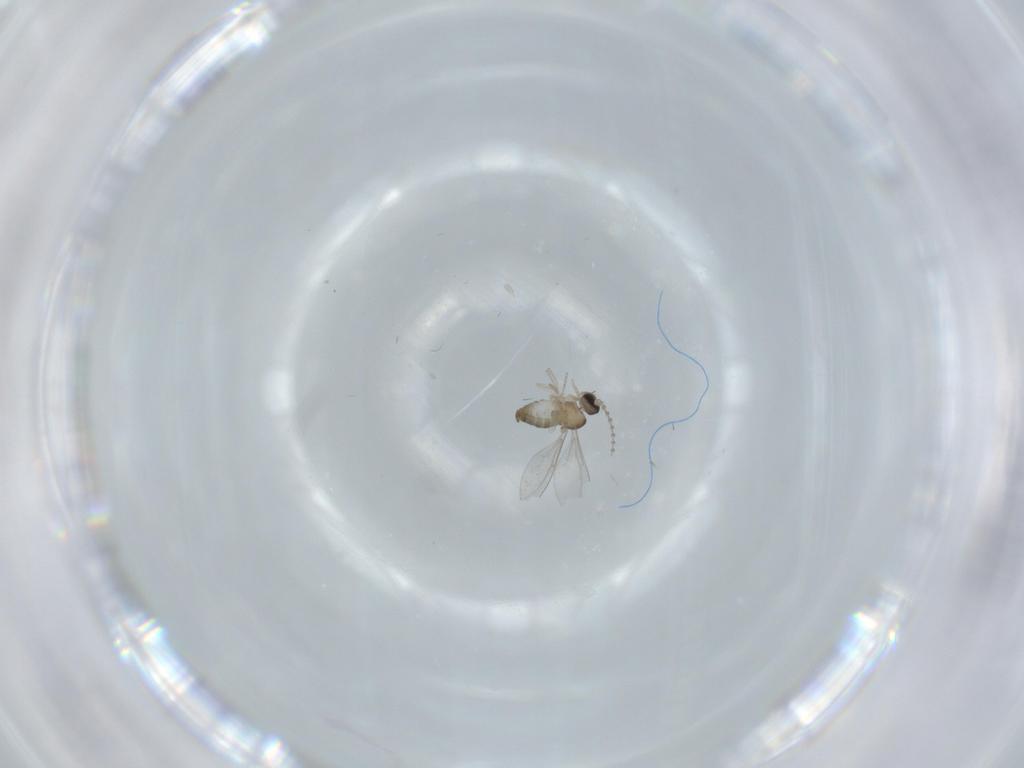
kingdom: Animalia
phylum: Arthropoda
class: Insecta
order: Diptera
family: Cecidomyiidae
